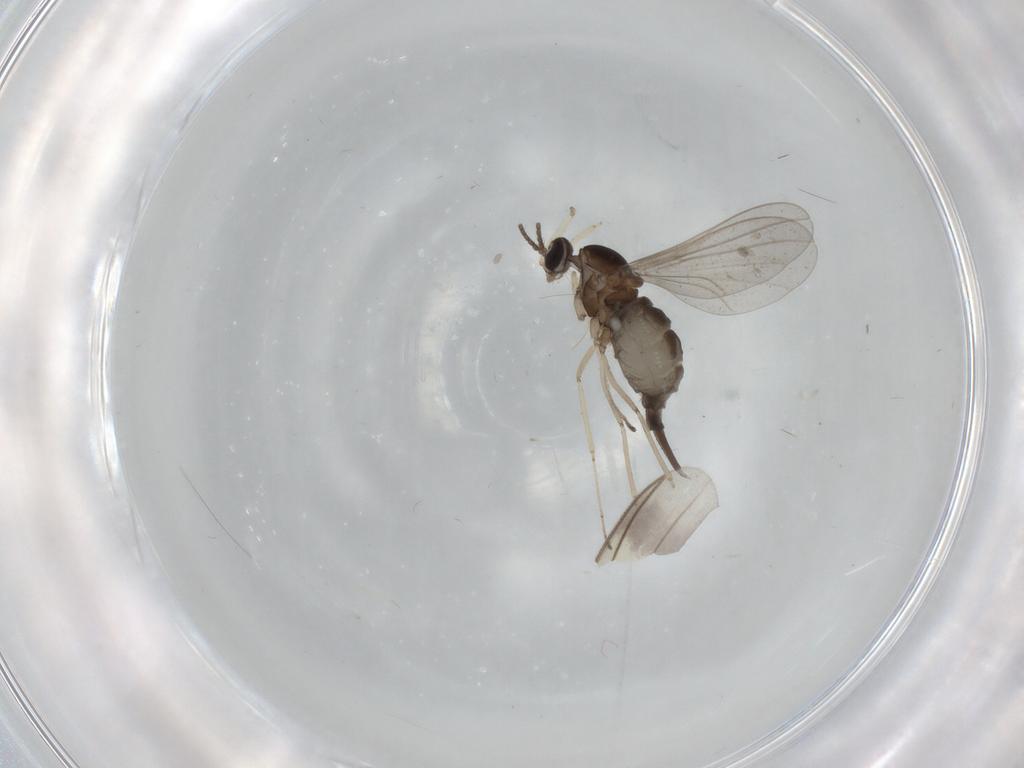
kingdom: Animalia
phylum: Arthropoda
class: Insecta
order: Diptera
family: Cecidomyiidae
